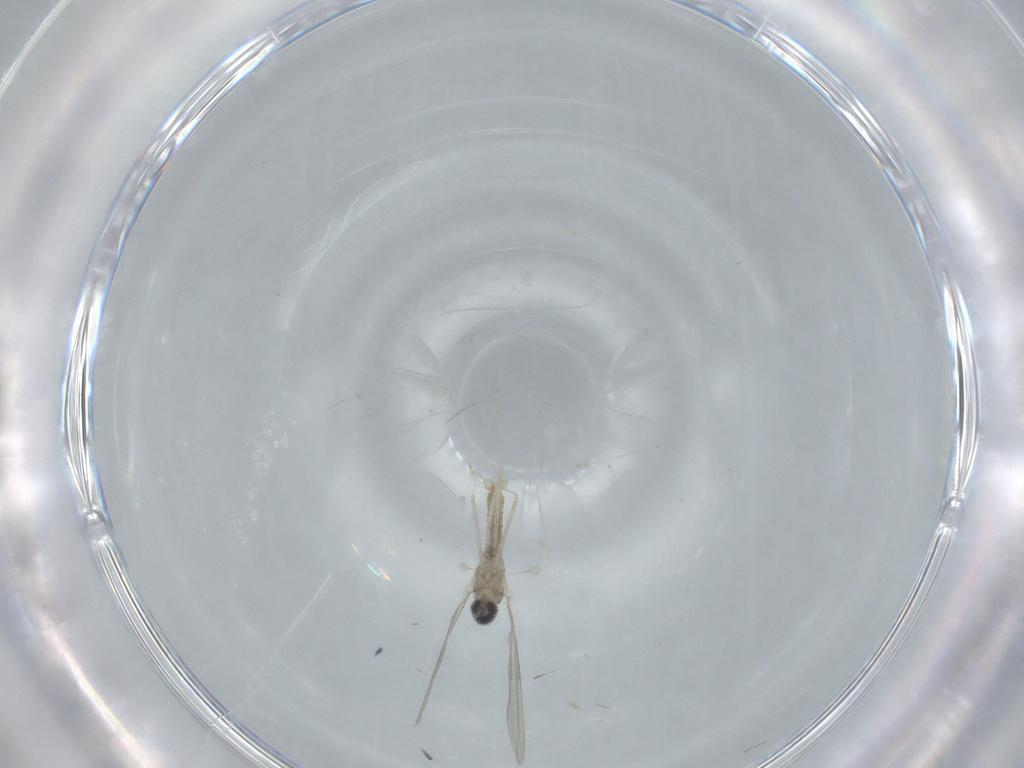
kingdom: Animalia
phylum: Arthropoda
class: Insecta
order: Diptera
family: Cecidomyiidae
